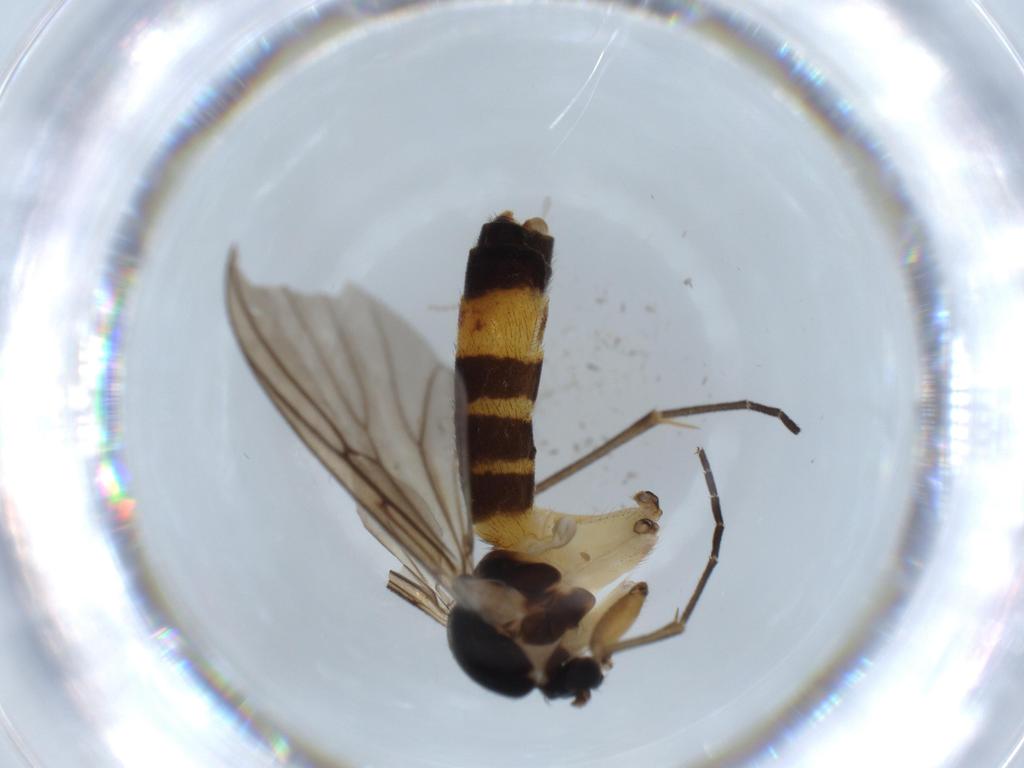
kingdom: Animalia
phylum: Arthropoda
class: Insecta
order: Diptera
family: Mycetophilidae
